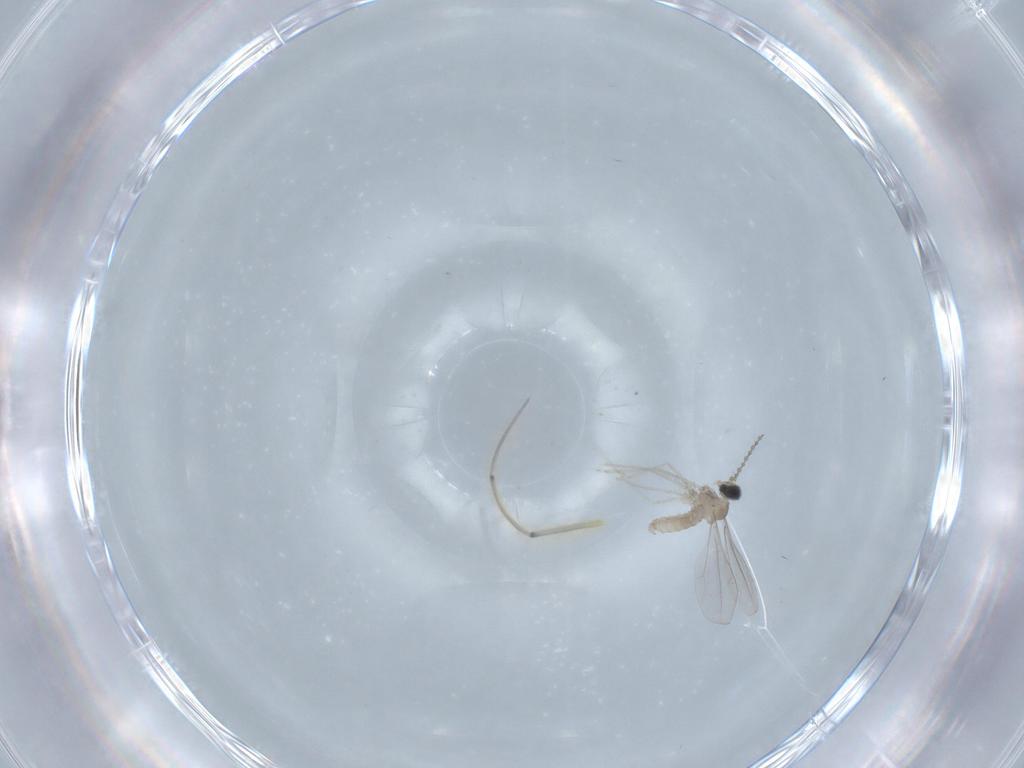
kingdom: Animalia
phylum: Arthropoda
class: Insecta
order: Diptera
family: Cecidomyiidae
